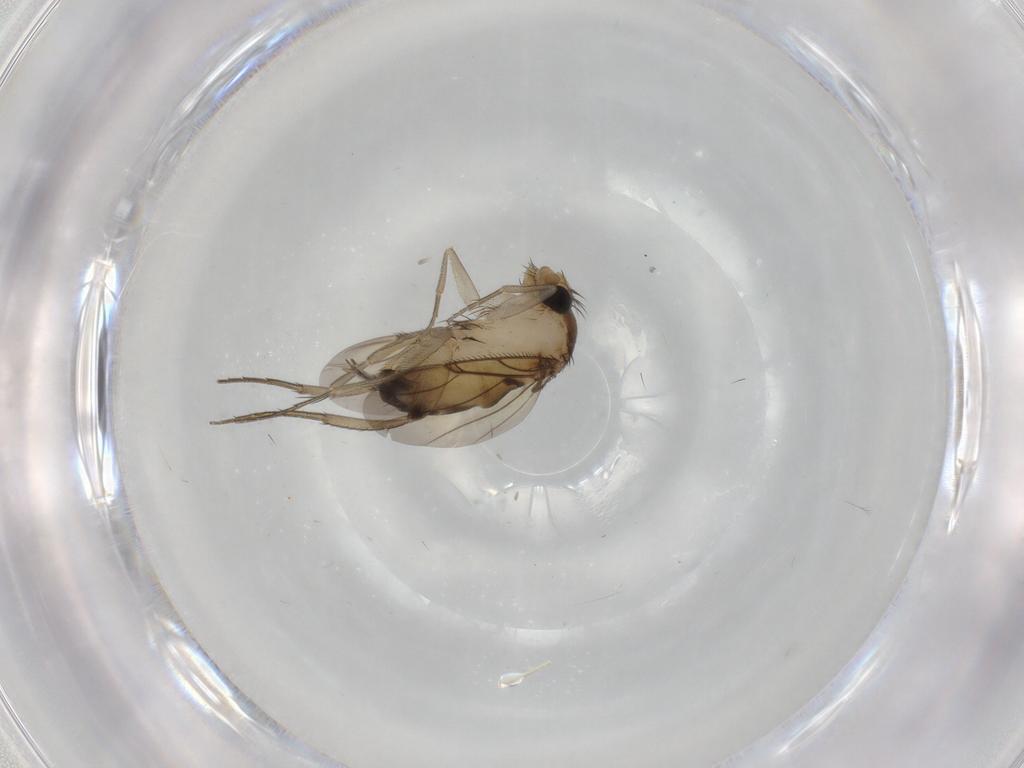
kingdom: Animalia
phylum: Arthropoda
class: Insecta
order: Diptera
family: Phoridae
